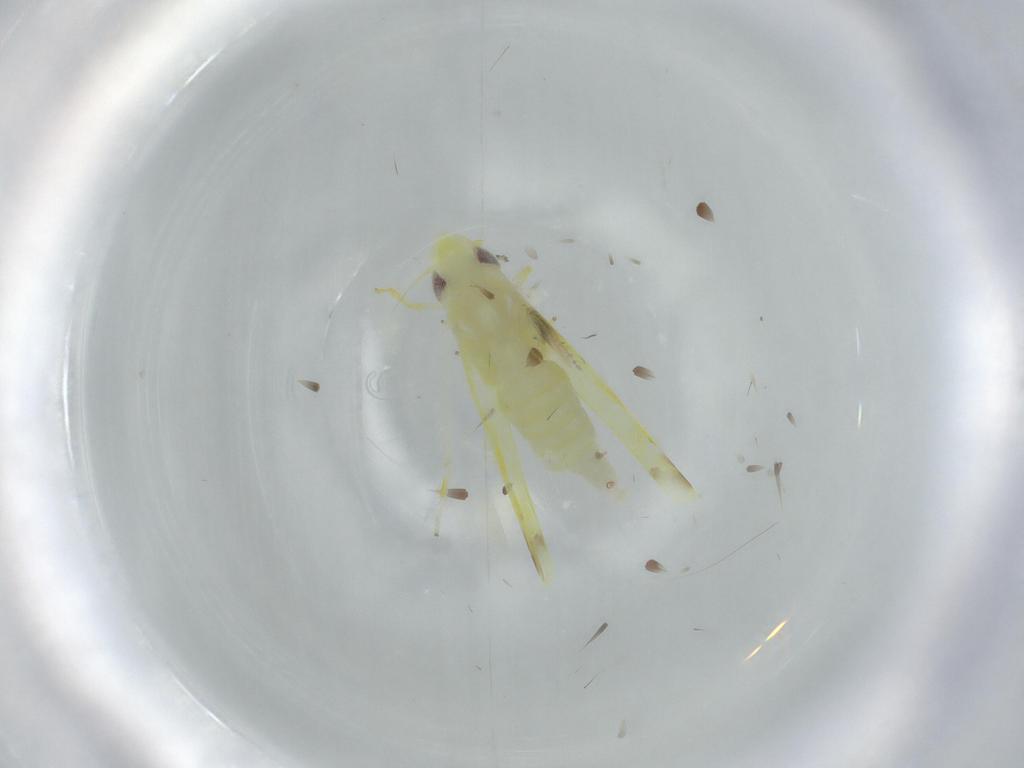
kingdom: Animalia
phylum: Arthropoda
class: Insecta
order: Hemiptera
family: Cicadellidae
